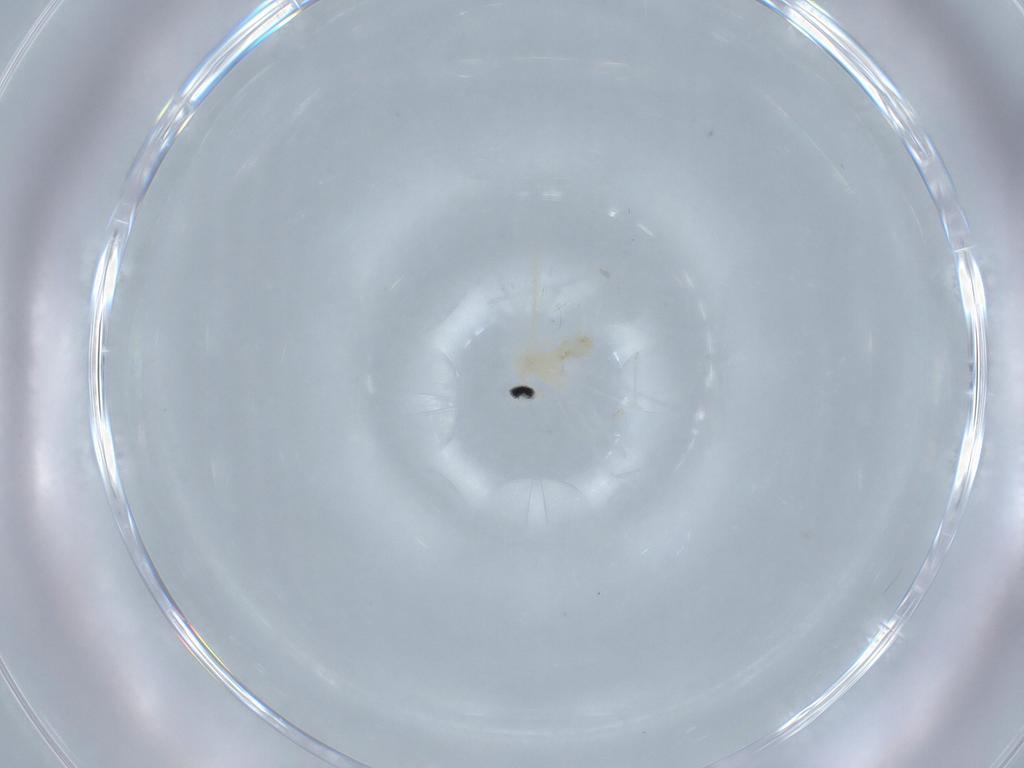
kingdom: Animalia
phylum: Arthropoda
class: Insecta
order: Diptera
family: Cecidomyiidae
